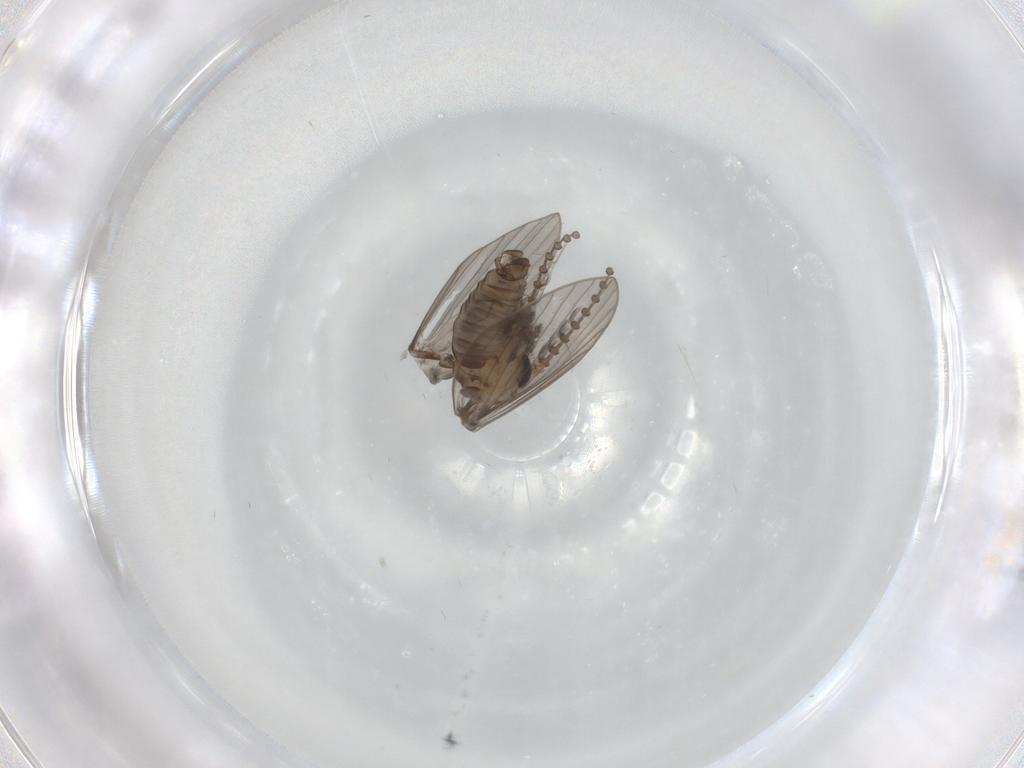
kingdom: Animalia
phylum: Arthropoda
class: Insecta
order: Diptera
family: Psychodidae
